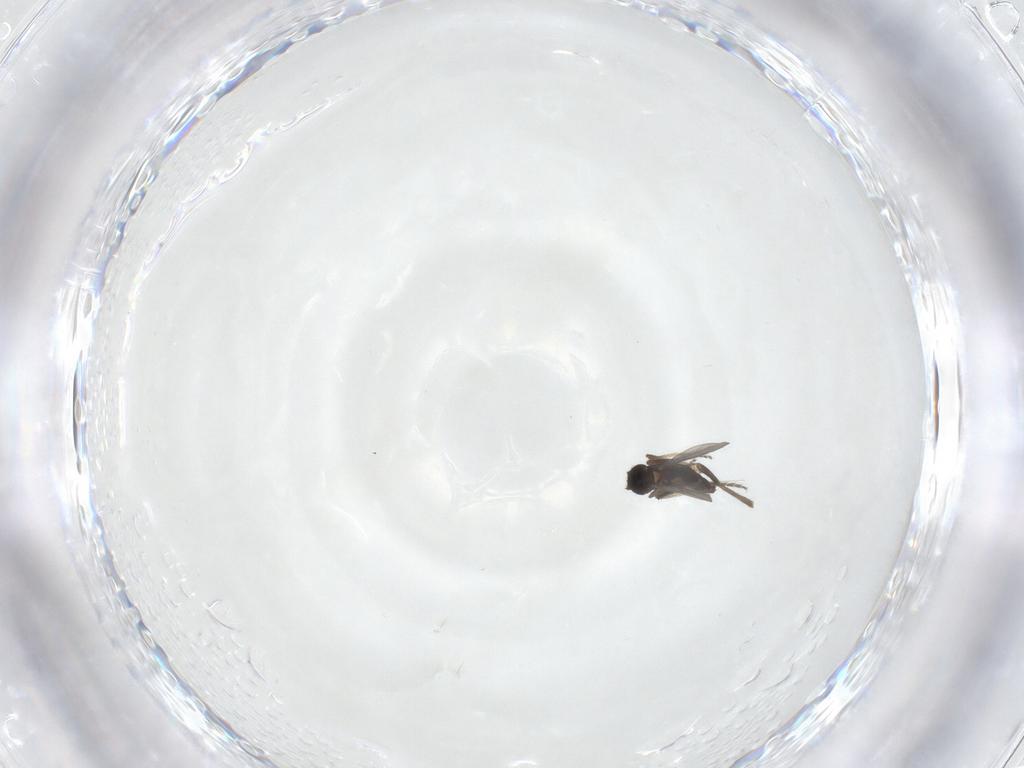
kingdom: Animalia
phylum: Arthropoda
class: Insecta
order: Diptera
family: Phoridae
